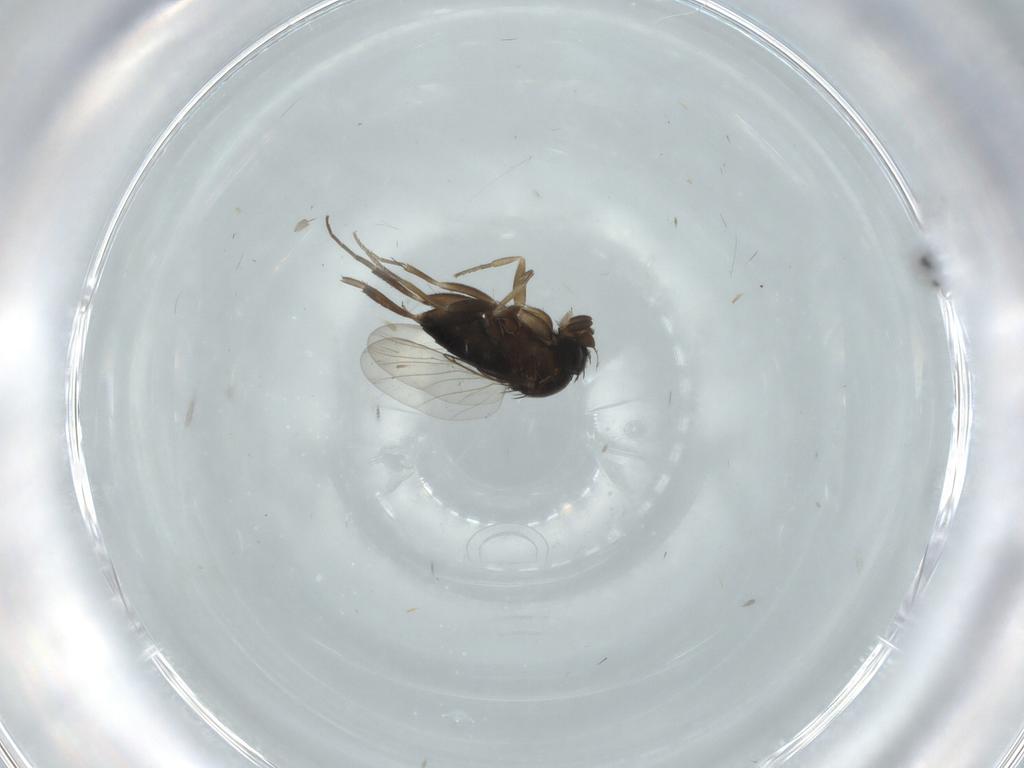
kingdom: Animalia
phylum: Arthropoda
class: Insecta
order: Diptera
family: Phoridae
